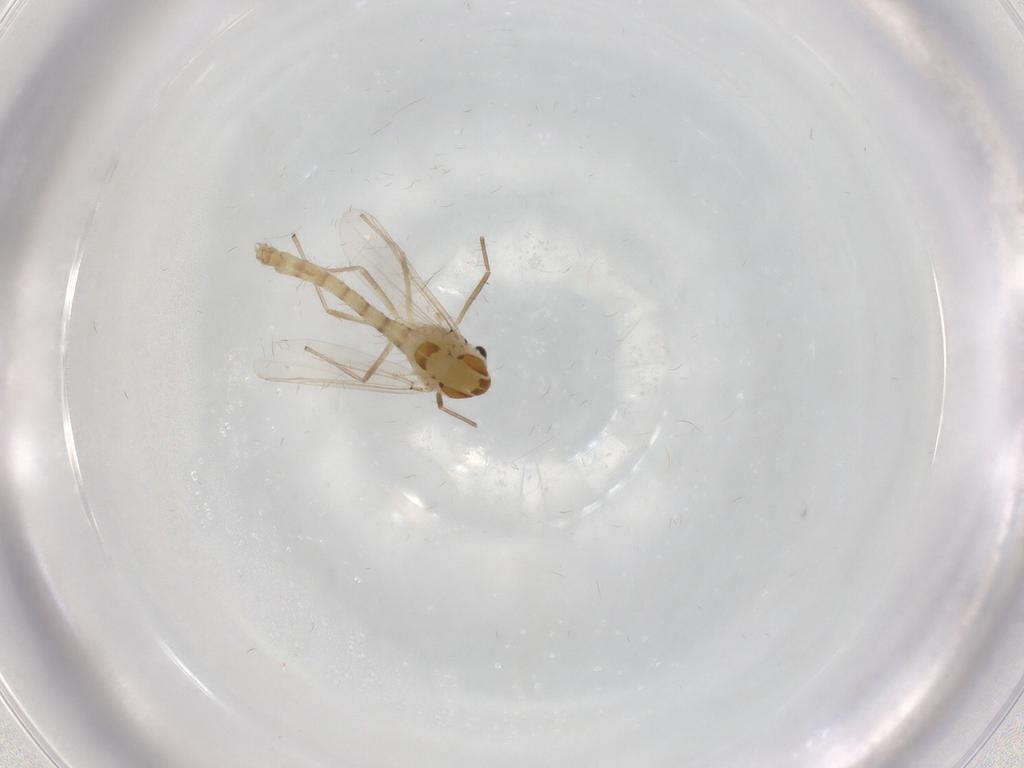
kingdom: Animalia
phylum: Arthropoda
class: Insecta
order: Diptera
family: Chironomidae
